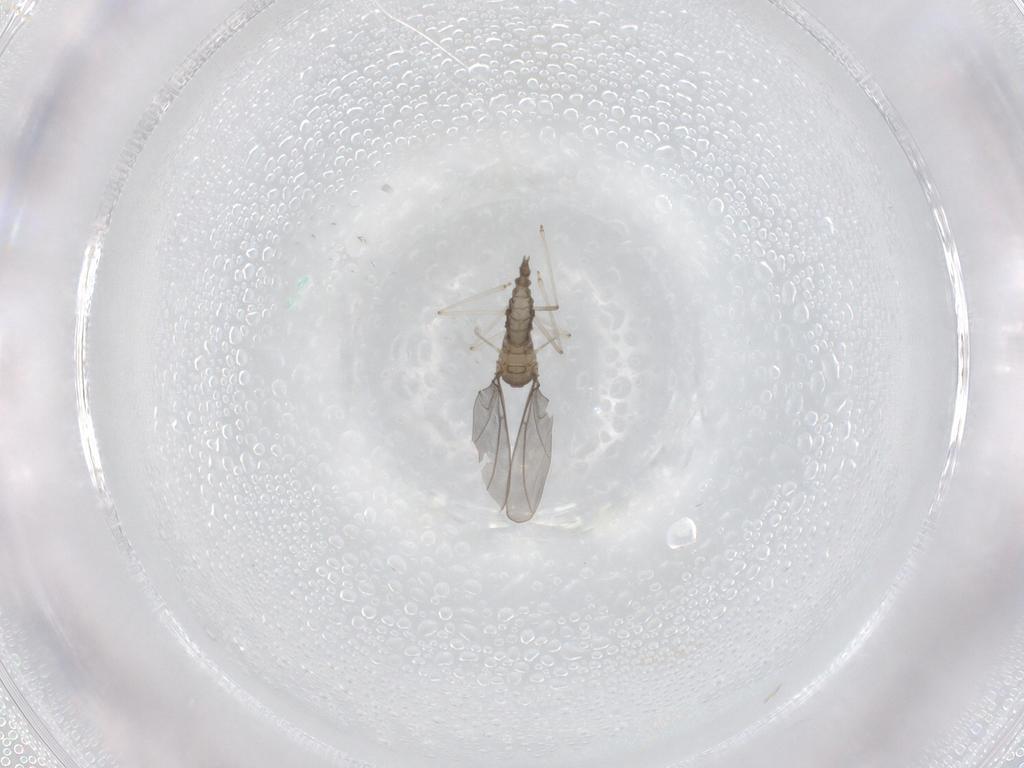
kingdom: Animalia
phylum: Arthropoda
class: Insecta
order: Diptera
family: Cecidomyiidae
